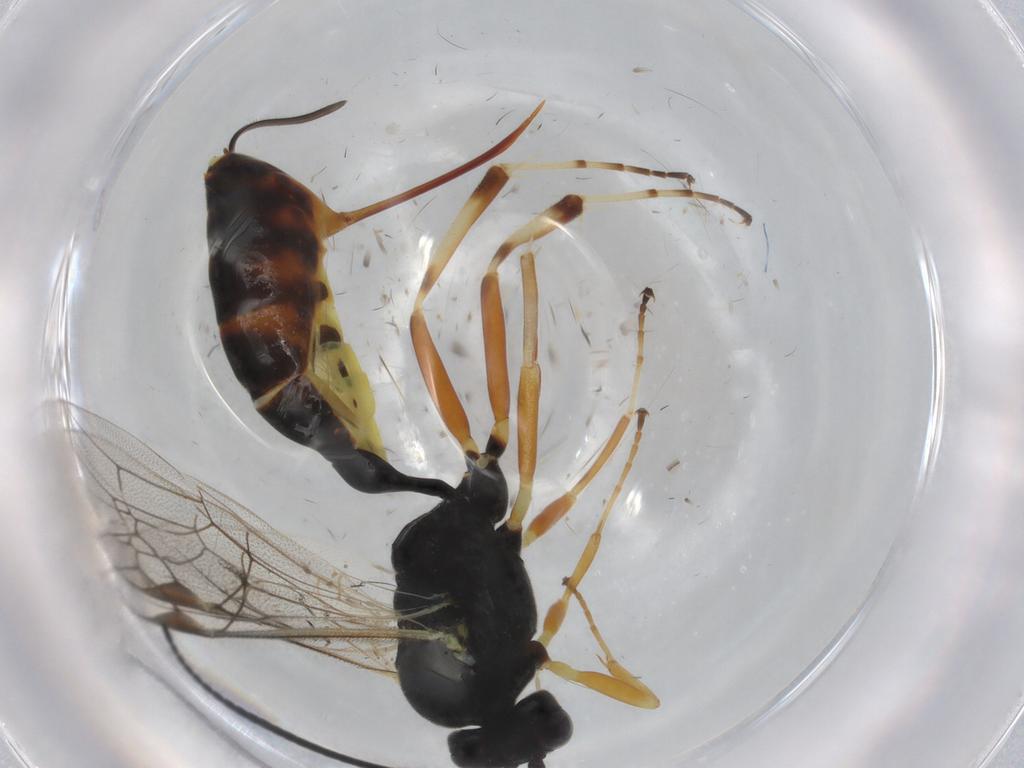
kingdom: Animalia
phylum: Arthropoda
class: Insecta
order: Hymenoptera
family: Ichneumonidae
